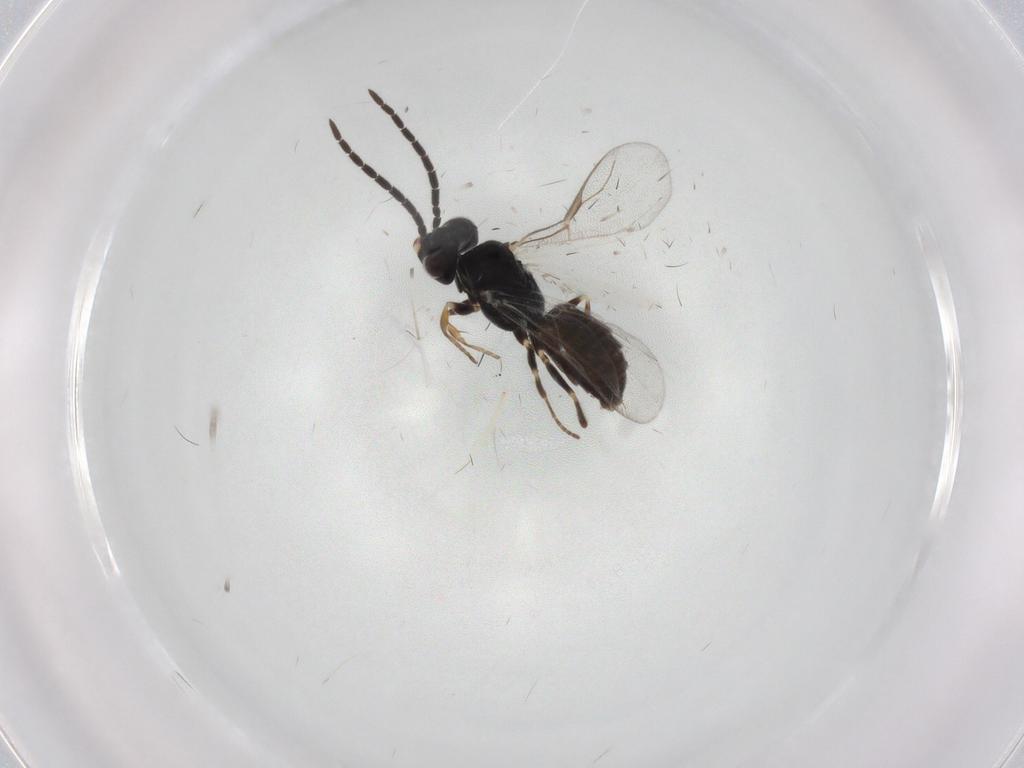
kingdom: Animalia
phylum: Arthropoda
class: Insecta
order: Hymenoptera
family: Dryinidae
